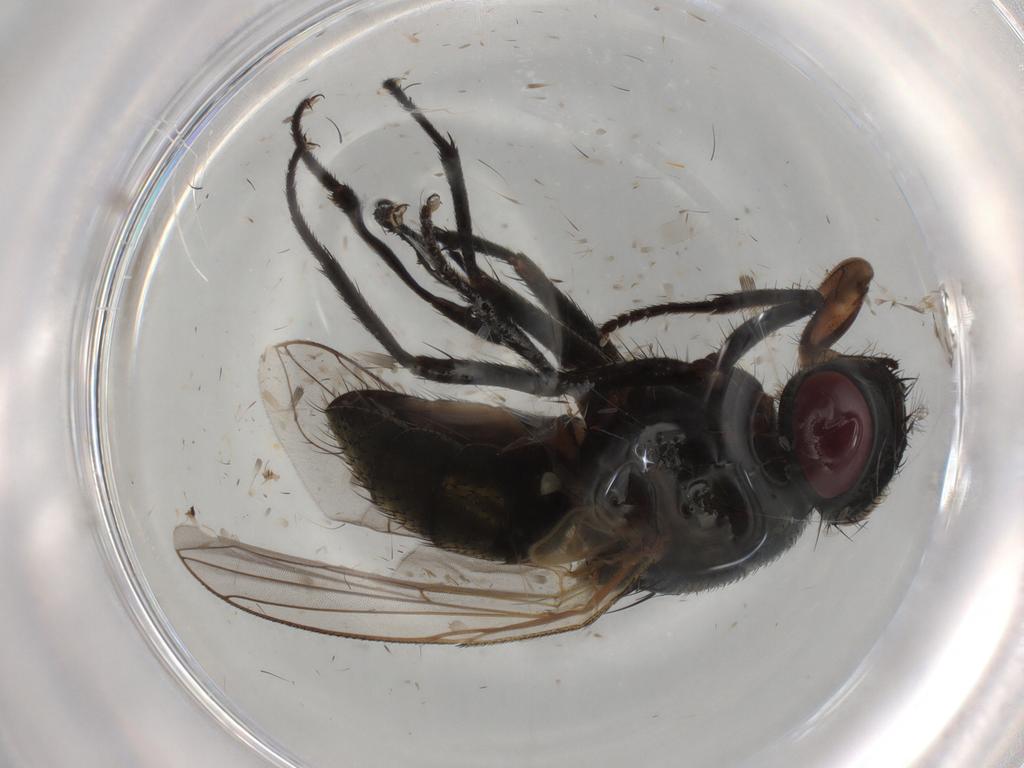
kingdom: Animalia
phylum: Arthropoda
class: Insecta
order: Diptera
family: Muscidae
